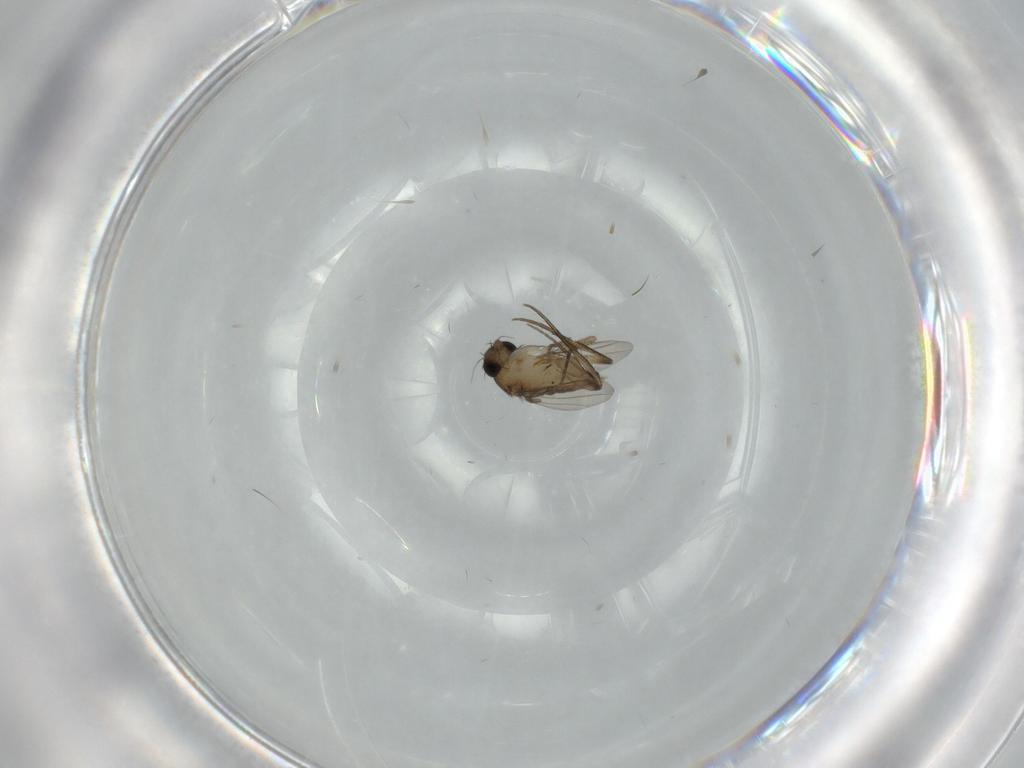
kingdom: Animalia
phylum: Arthropoda
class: Insecta
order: Diptera
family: Phoridae
